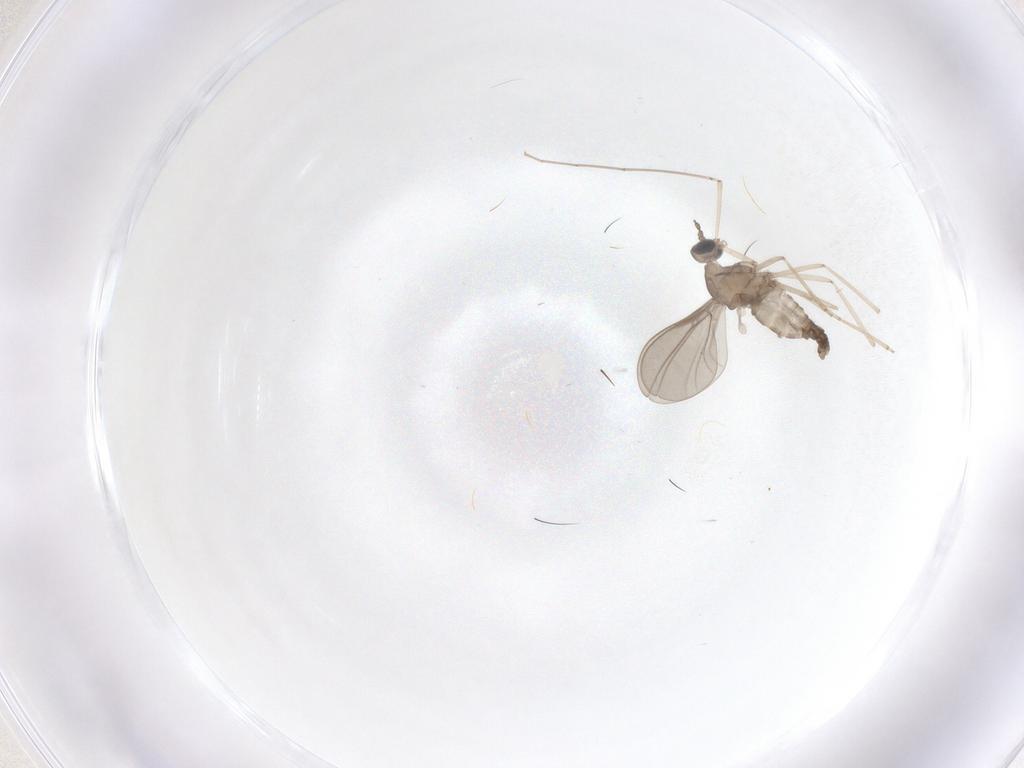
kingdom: Animalia
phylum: Arthropoda
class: Insecta
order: Diptera
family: Cecidomyiidae
